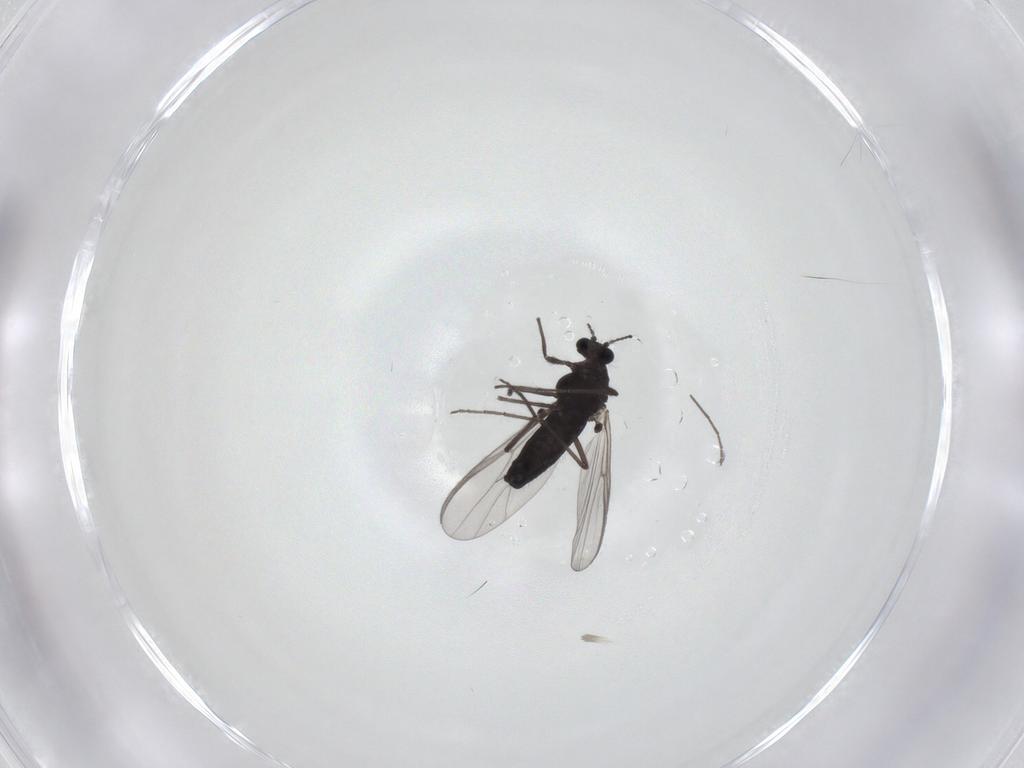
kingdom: Animalia
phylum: Arthropoda
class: Insecta
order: Diptera
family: Chironomidae
